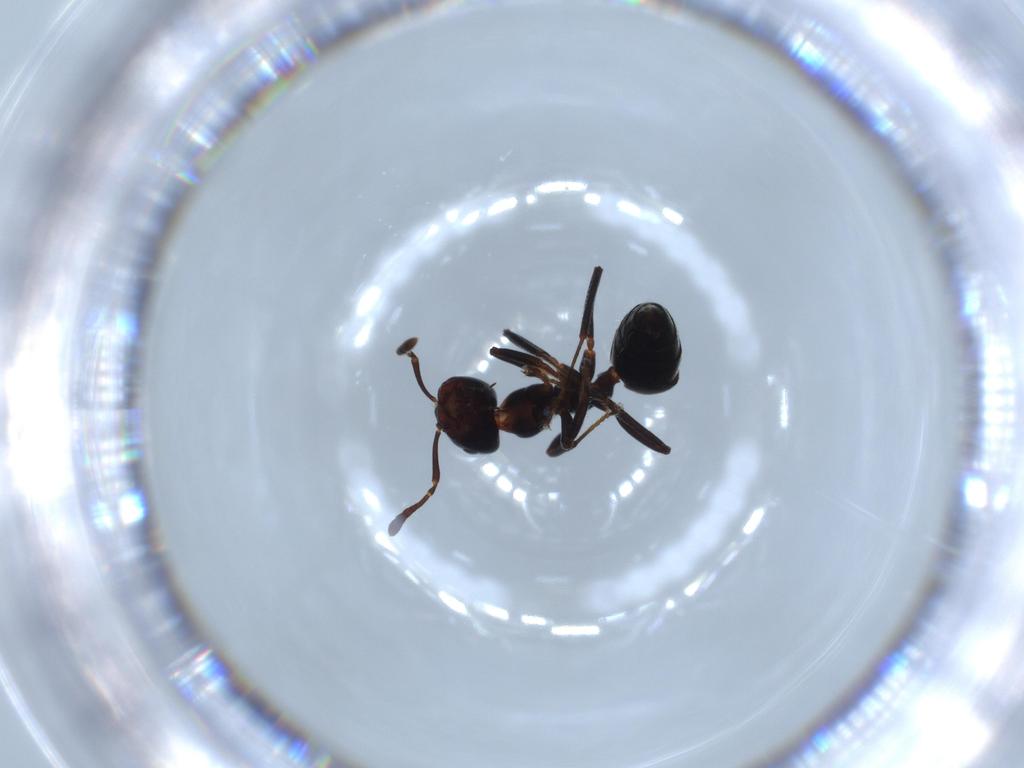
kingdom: Animalia
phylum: Arthropoda
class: Insecta
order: Hymenoptera
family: Formicidae
